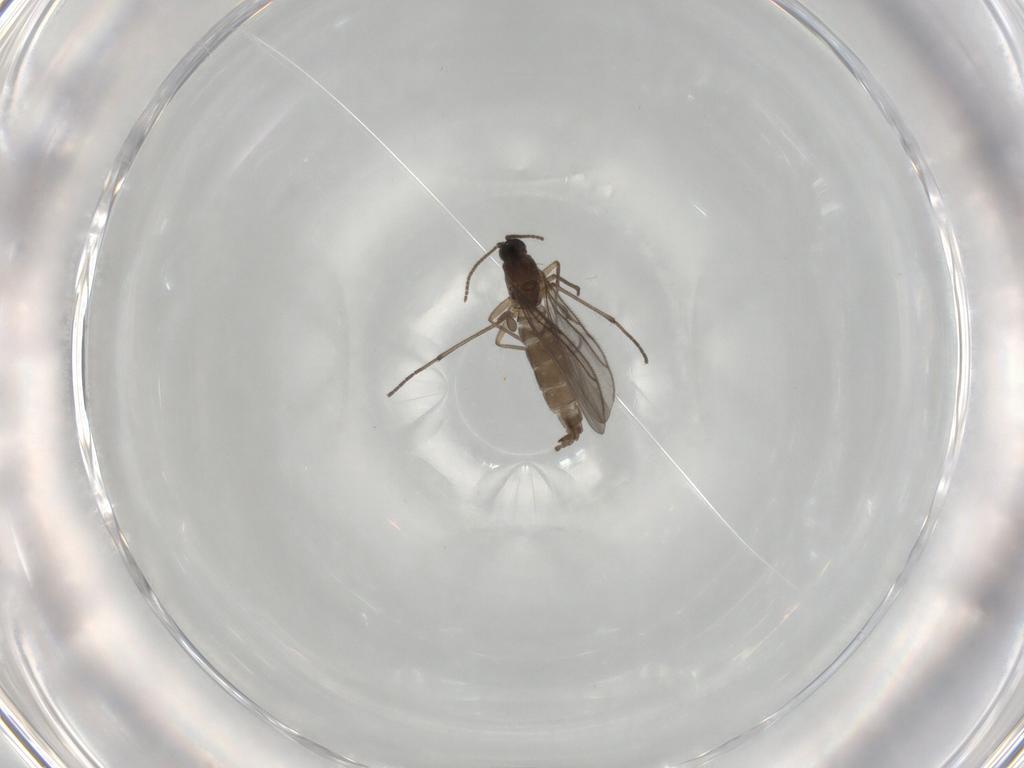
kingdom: Animalia
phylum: Arthropoda
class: Insecta
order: Diptera
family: Sciaridae
